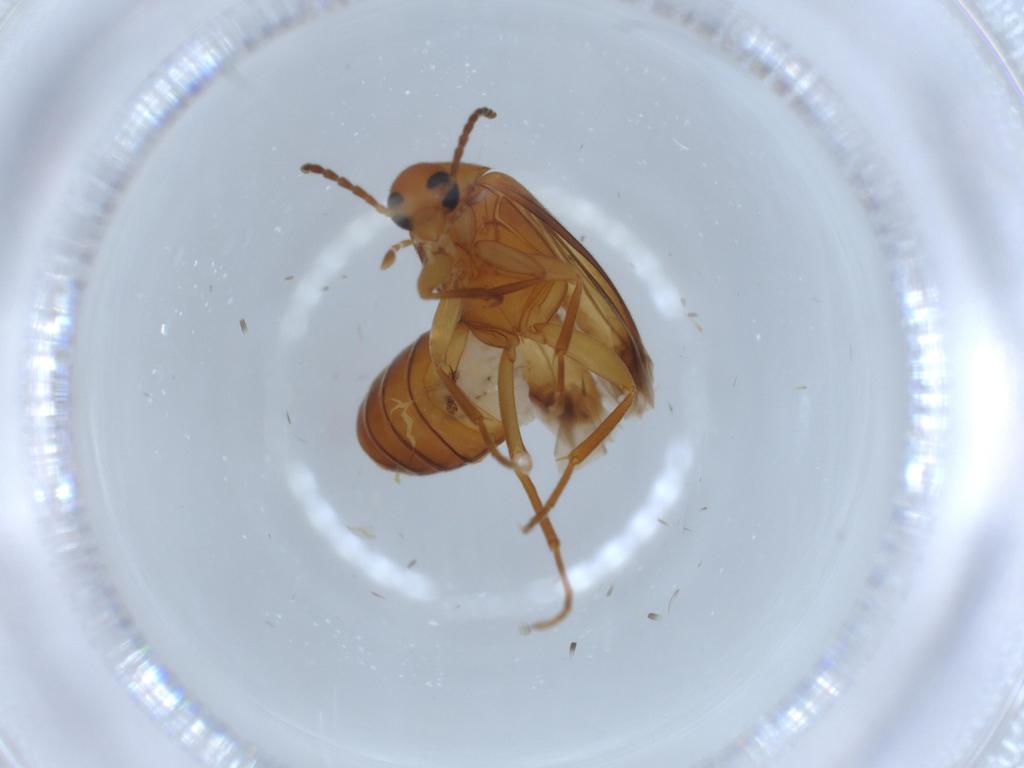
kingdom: Animalia
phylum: Arthropoda
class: Insecta
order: Coleoptera
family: Scraptiidae
